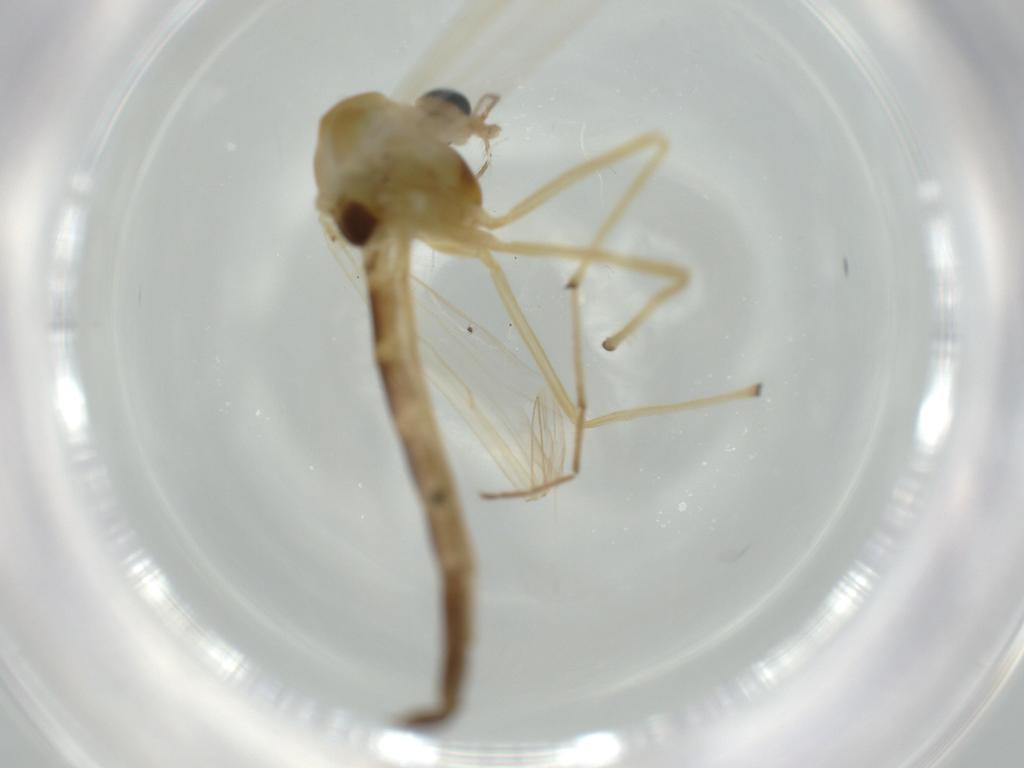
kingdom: Animalia
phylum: Arthropoda
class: Insecta
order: Diptera
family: Chironomidae
